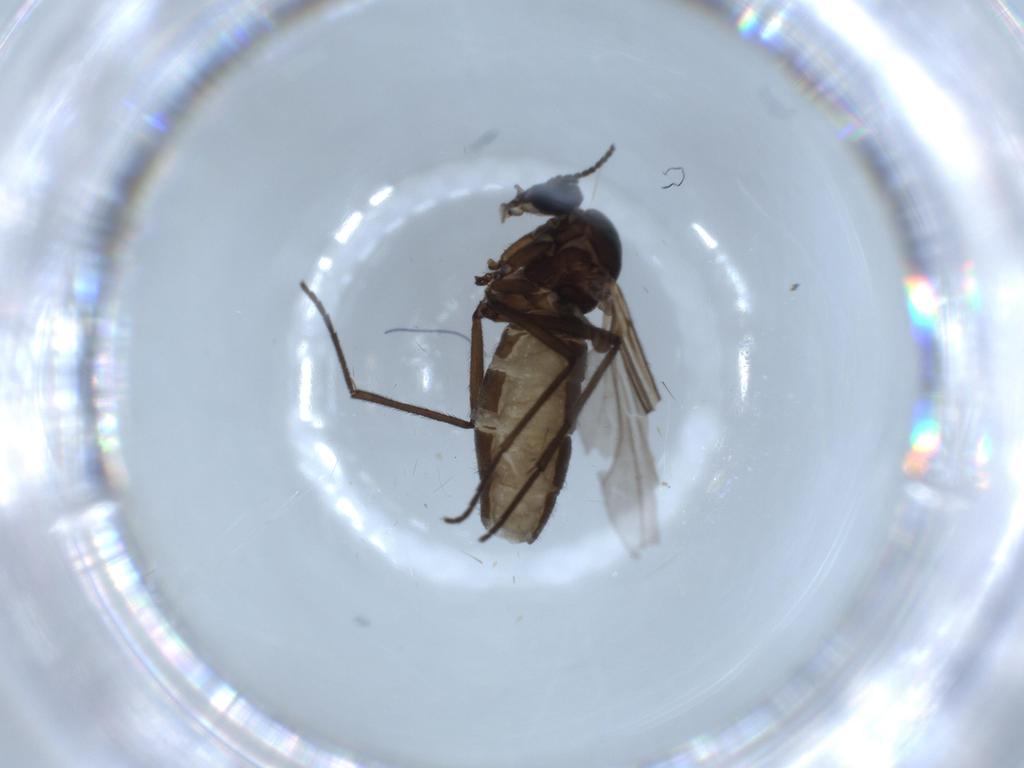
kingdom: Animalia
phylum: Arthropoda
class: Insecta
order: Diptera
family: Sciaridae
